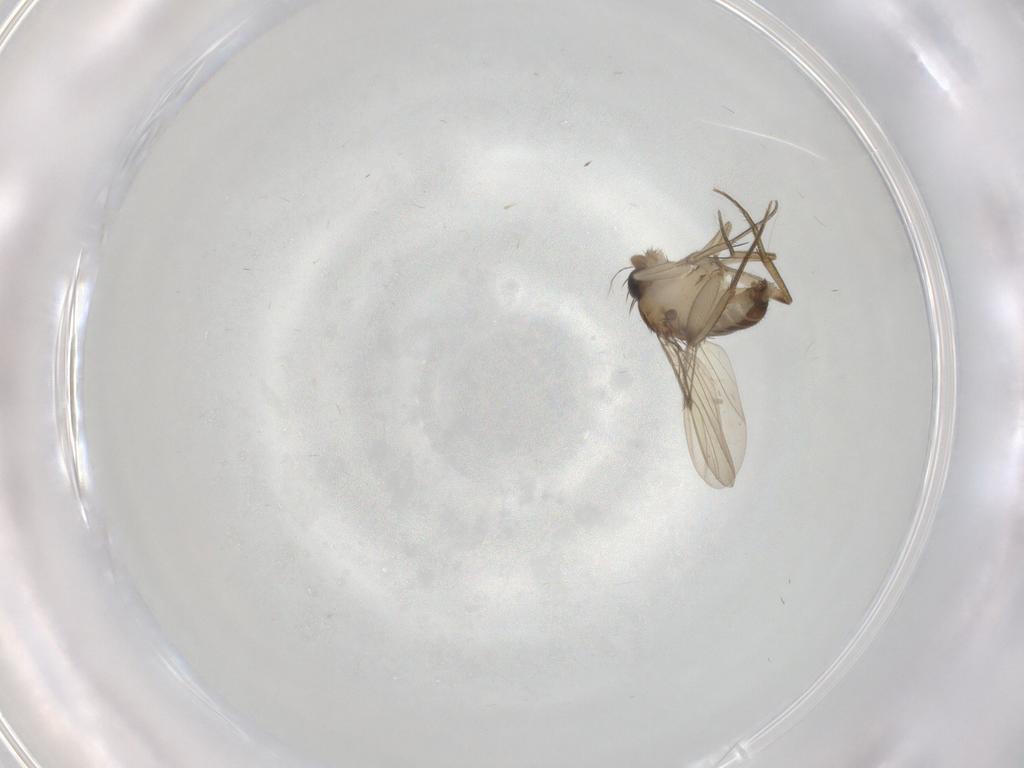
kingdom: Animalia
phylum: Arthropoda
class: Insecta
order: Diptera
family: Phoridae
